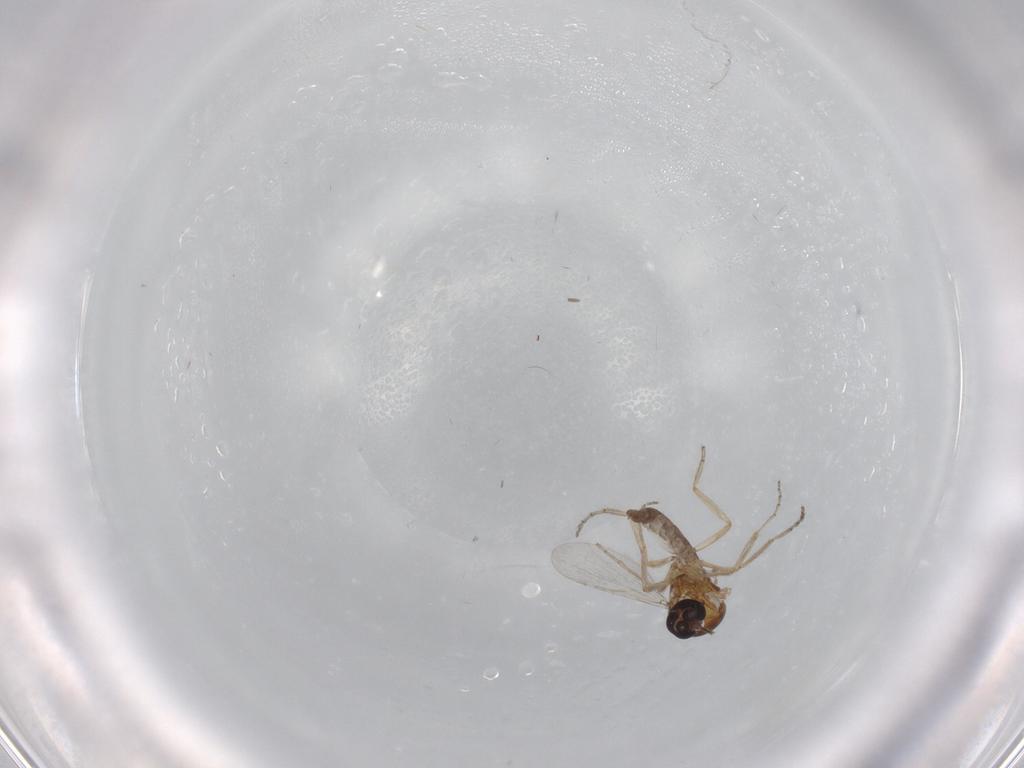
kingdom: Animalia
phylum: Arthropoda
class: Insecta
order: Diptera
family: Ceratopogonidae
